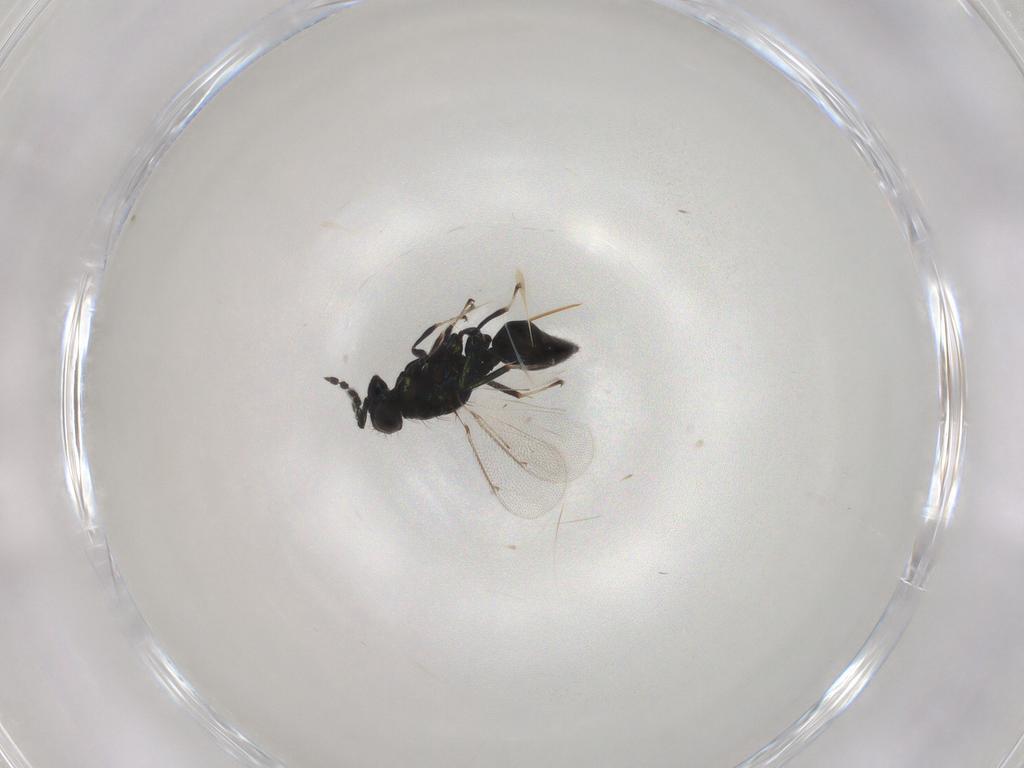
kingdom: Animalia
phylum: Arthropoda
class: Insecta
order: Hymenoptera
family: Eulophidae
